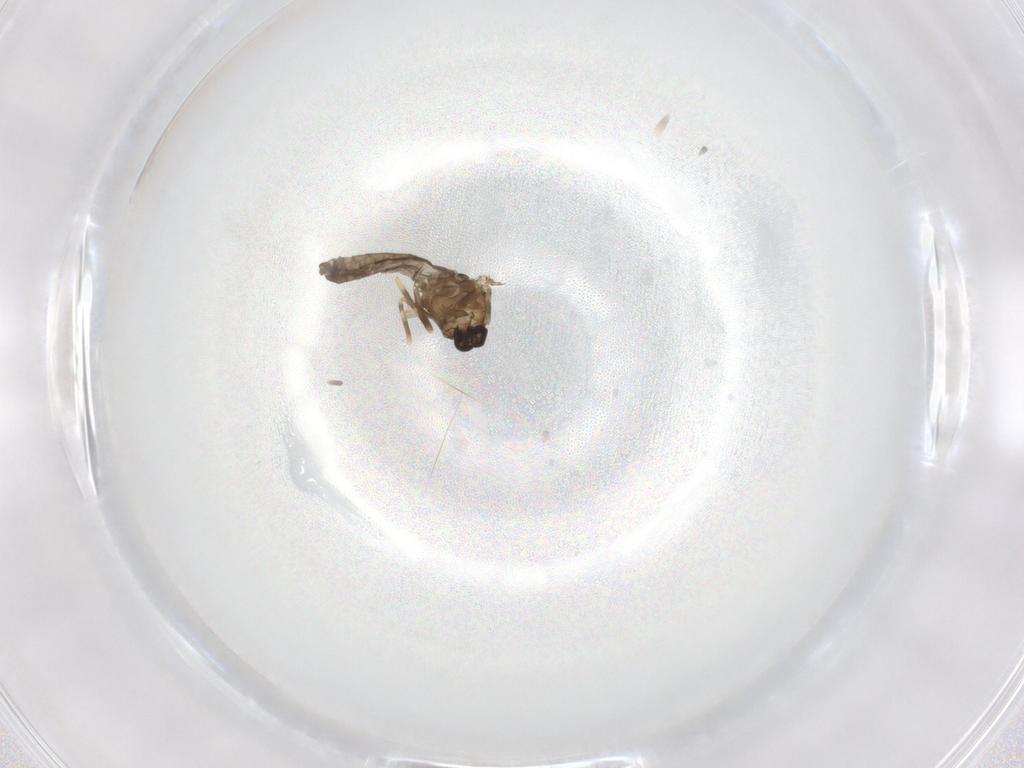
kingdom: Animalia
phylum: Arthropoda
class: Insecta
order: Diptera
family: Ceratopogonidae
